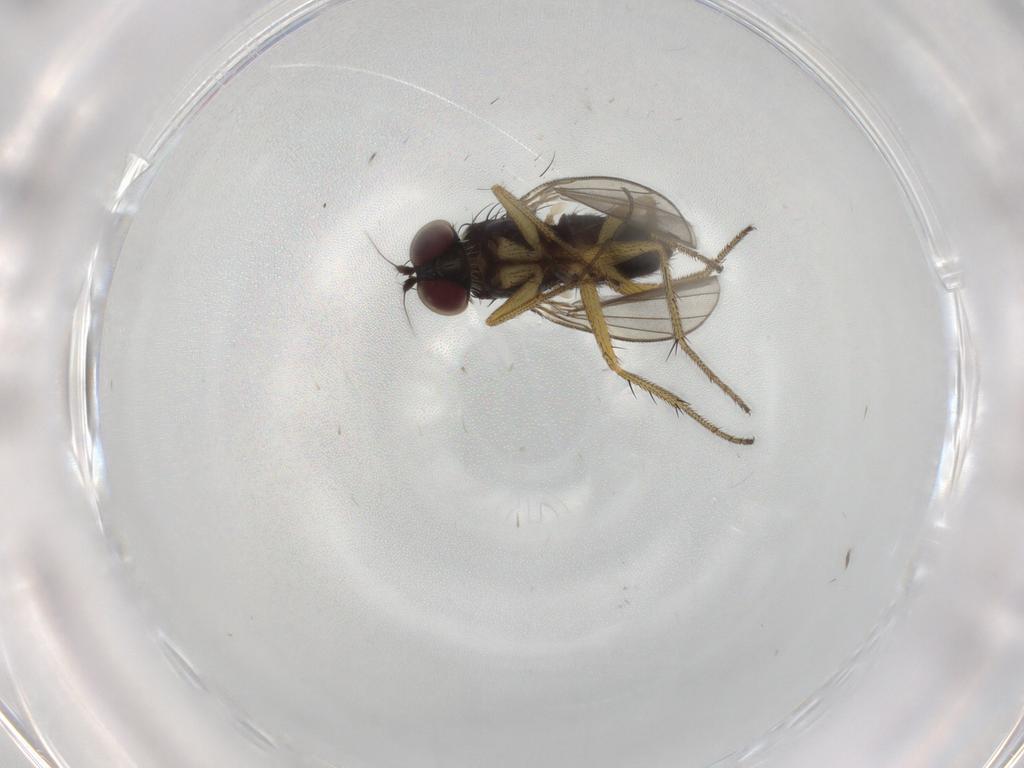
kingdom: Animalia
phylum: Arthropoda
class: Insecta
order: Diptera
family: Sciaridae
